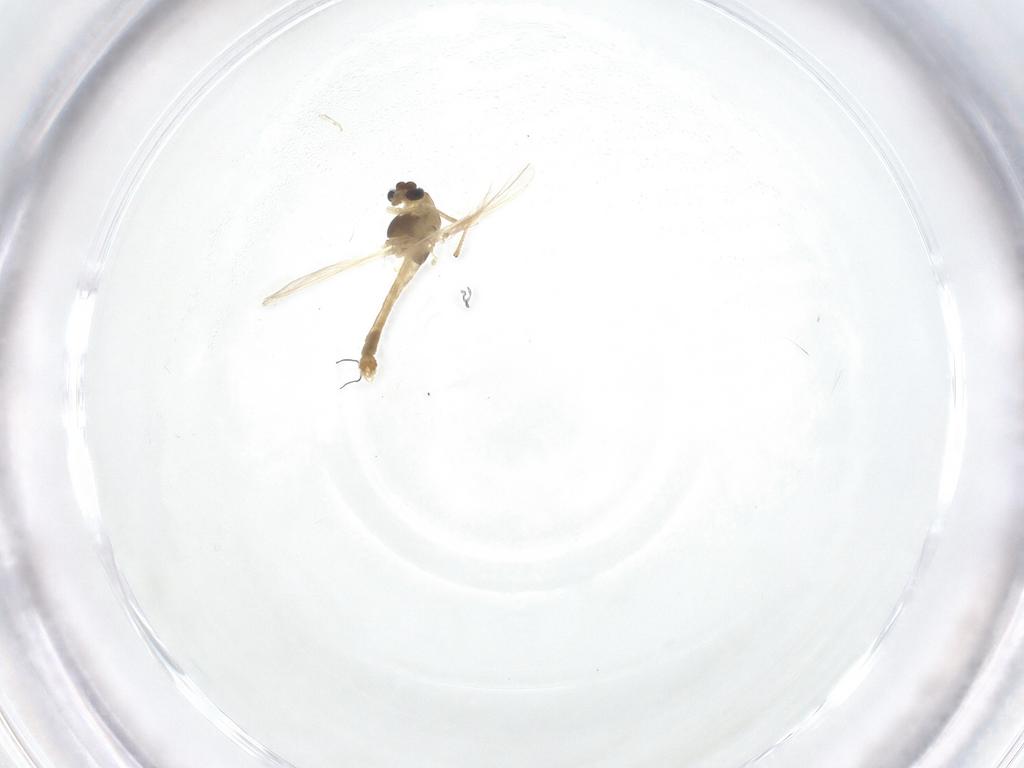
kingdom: Animalia
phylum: Arthropoda
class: Insecta
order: Diptera
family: Chironomidae
